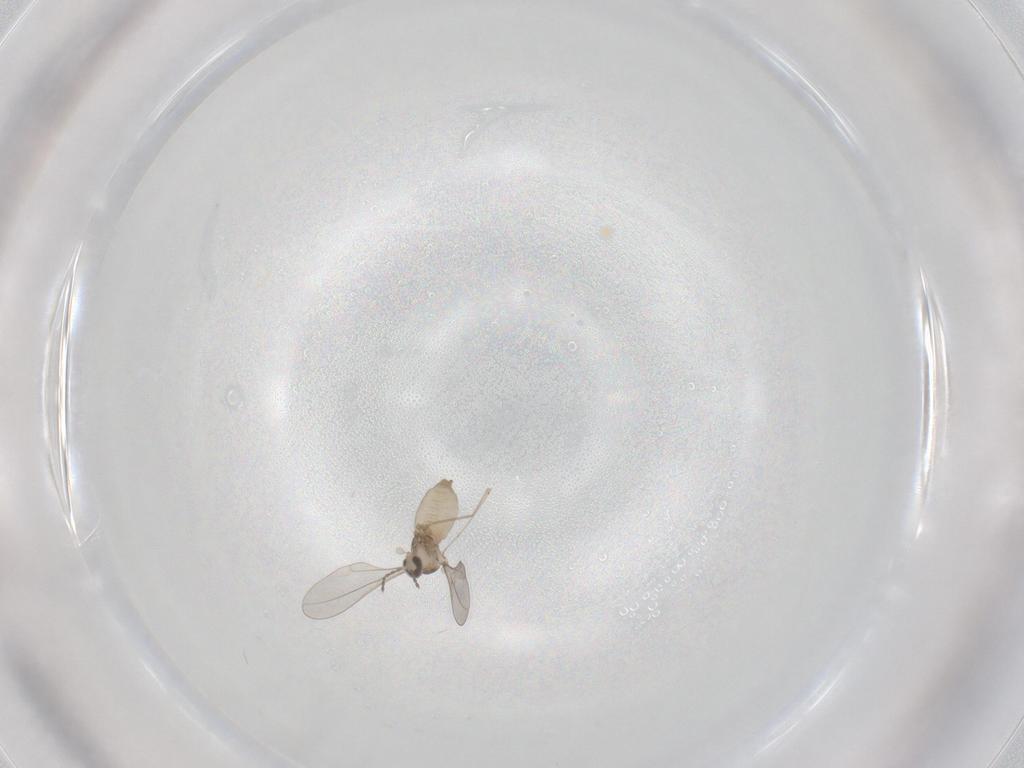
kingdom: Animalia
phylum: Arthropoda
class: Insecta
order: Diptera
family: Cecidomyiidae
